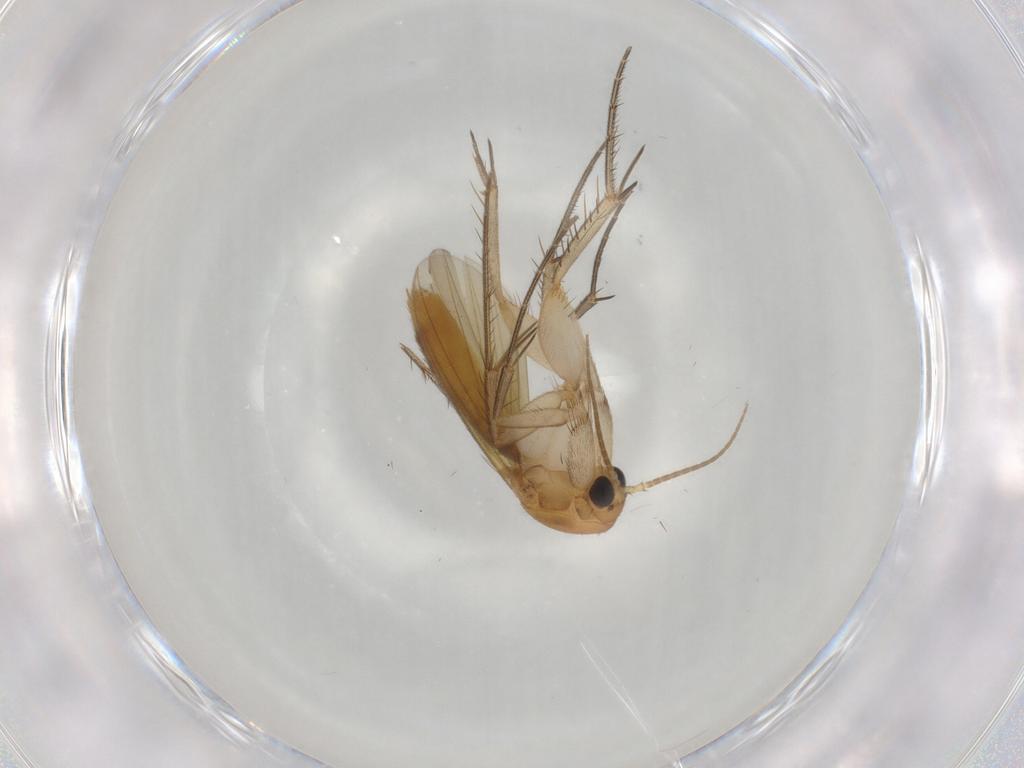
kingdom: Animalia
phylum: Arthropoda
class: Insecta
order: Diptera
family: Mycetophilidae
